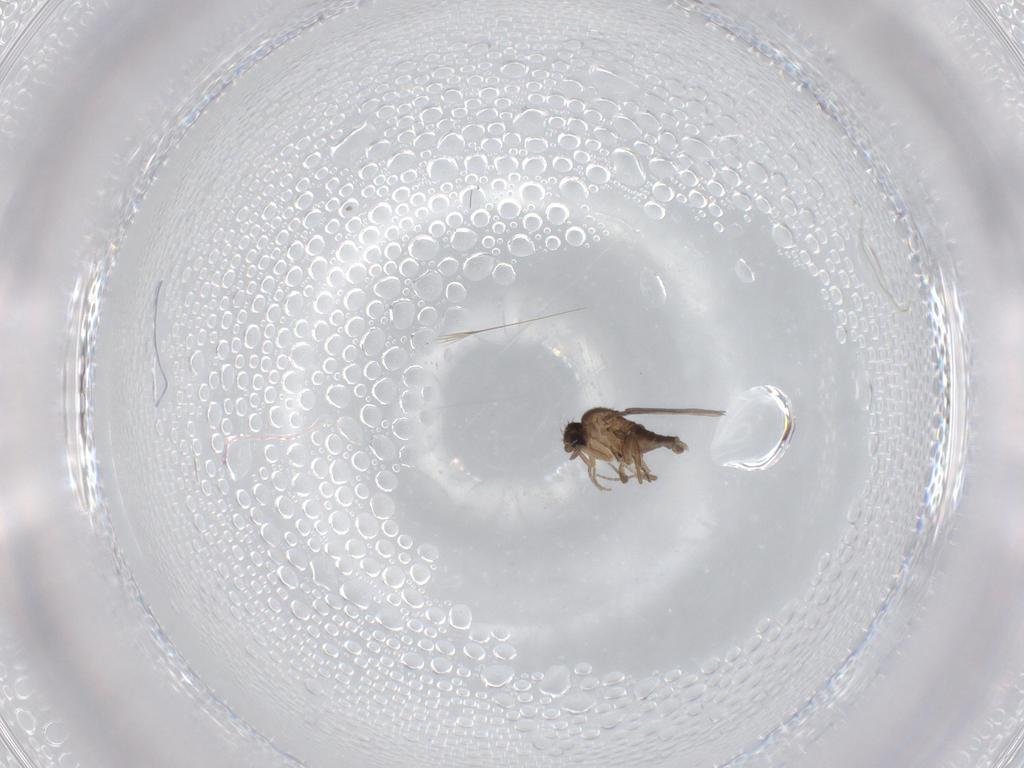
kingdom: Animalia
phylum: Arthropoda
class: Insecta
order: Diptera
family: Phoridae
